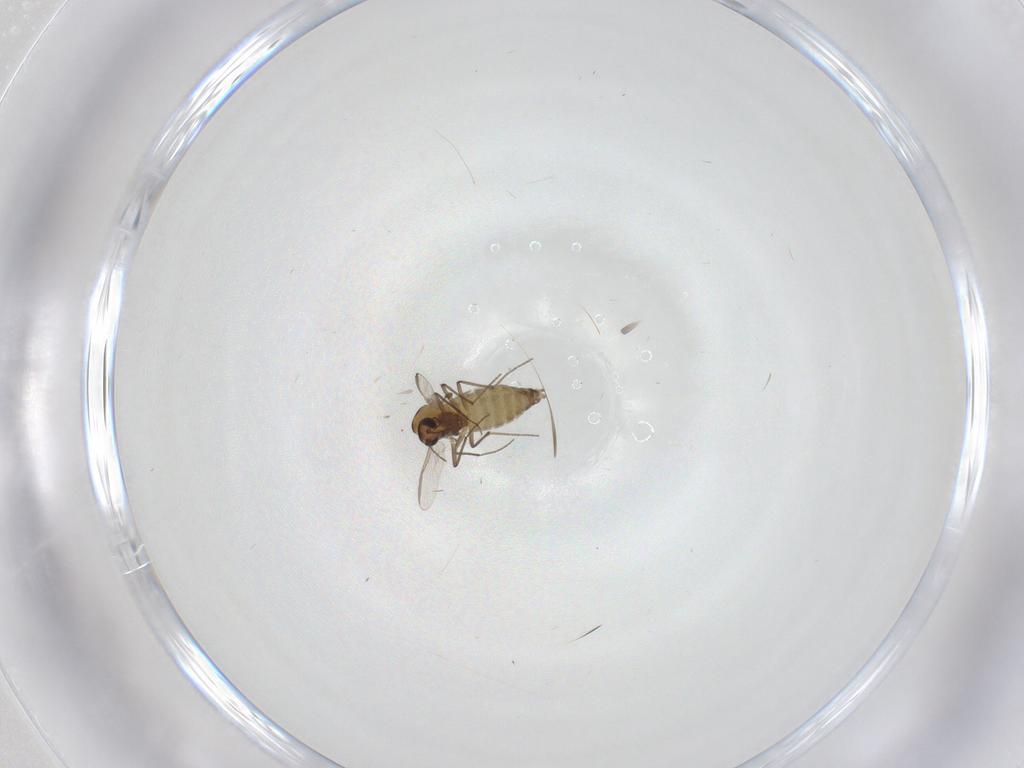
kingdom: Animalia
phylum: Arthropoda
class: Insecta
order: Diptera
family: Chironomidae
